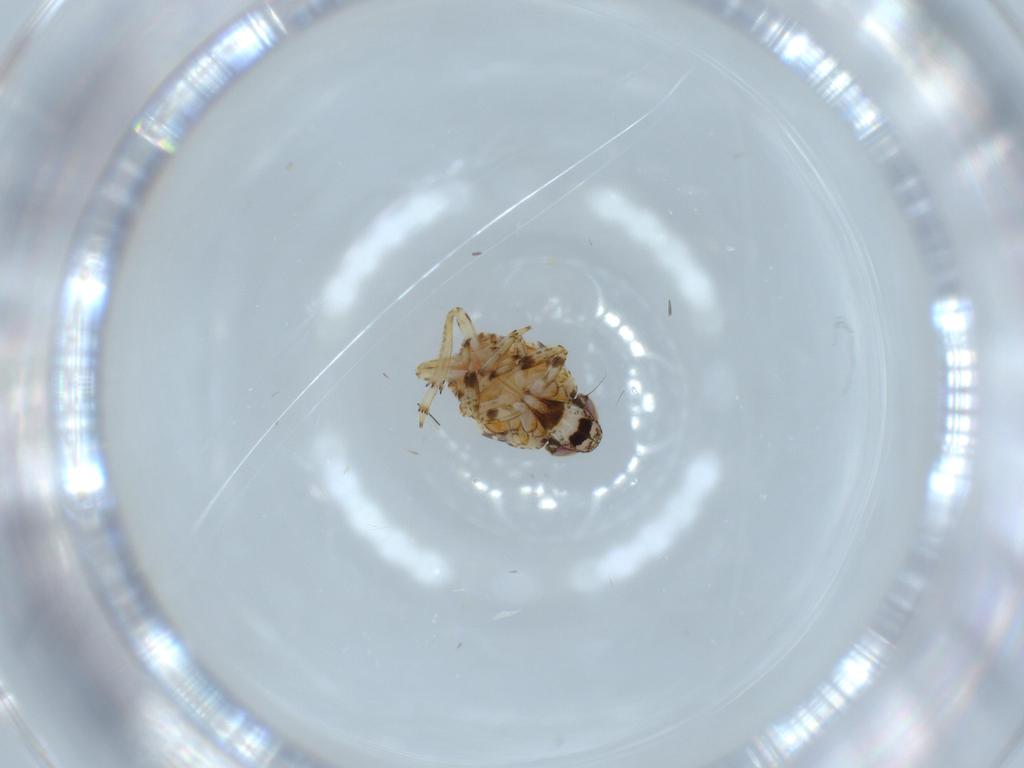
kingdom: Animalia
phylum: Arthropoda
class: Insecta
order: Hemiptera
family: Issidae
